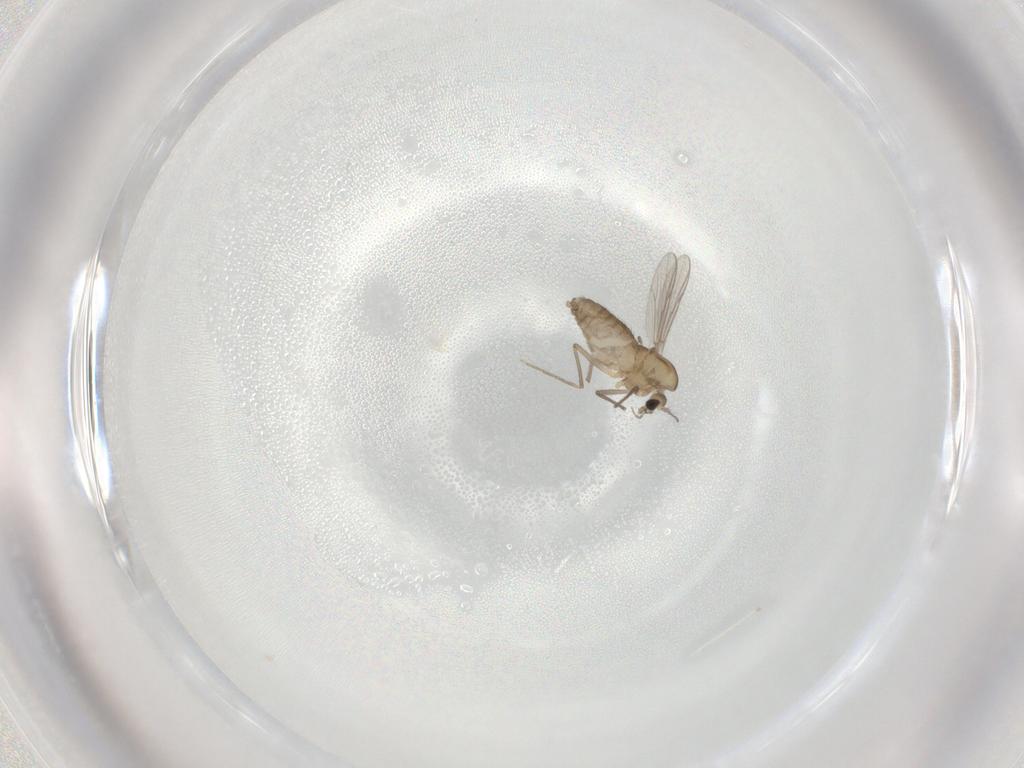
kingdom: Animalia
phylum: Arthropoda
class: Insecta
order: Diptera
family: Chironomidae
